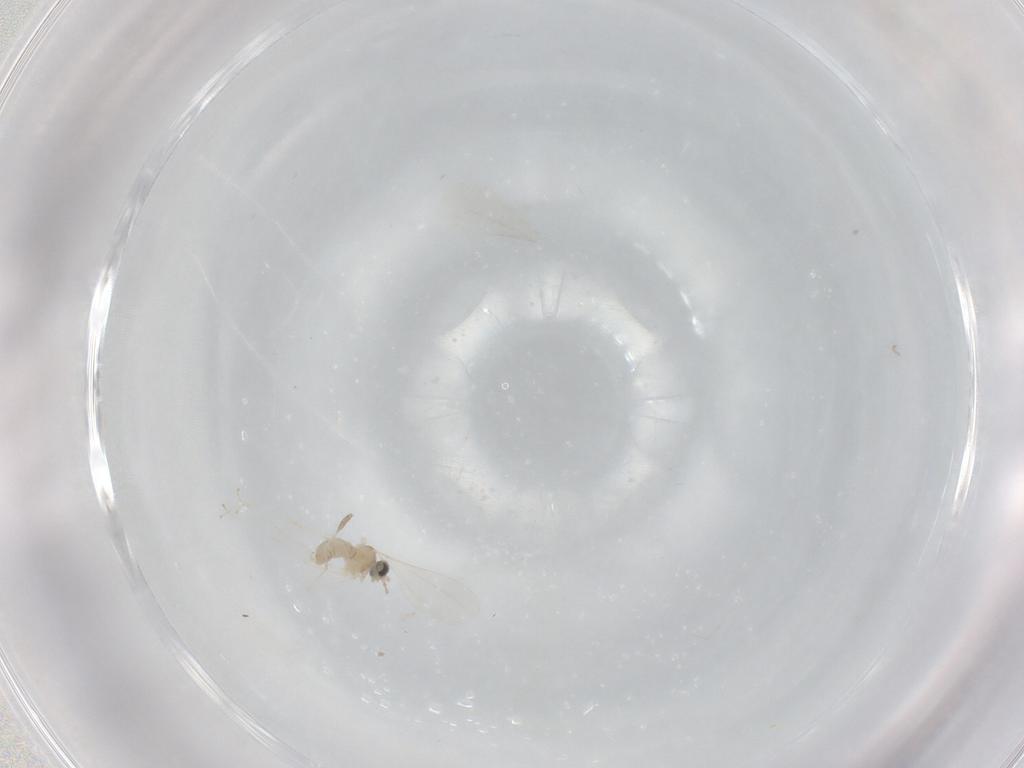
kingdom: Animalia
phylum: Arthropoda
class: Insecta
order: Diptera
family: Cecidomyiidae
